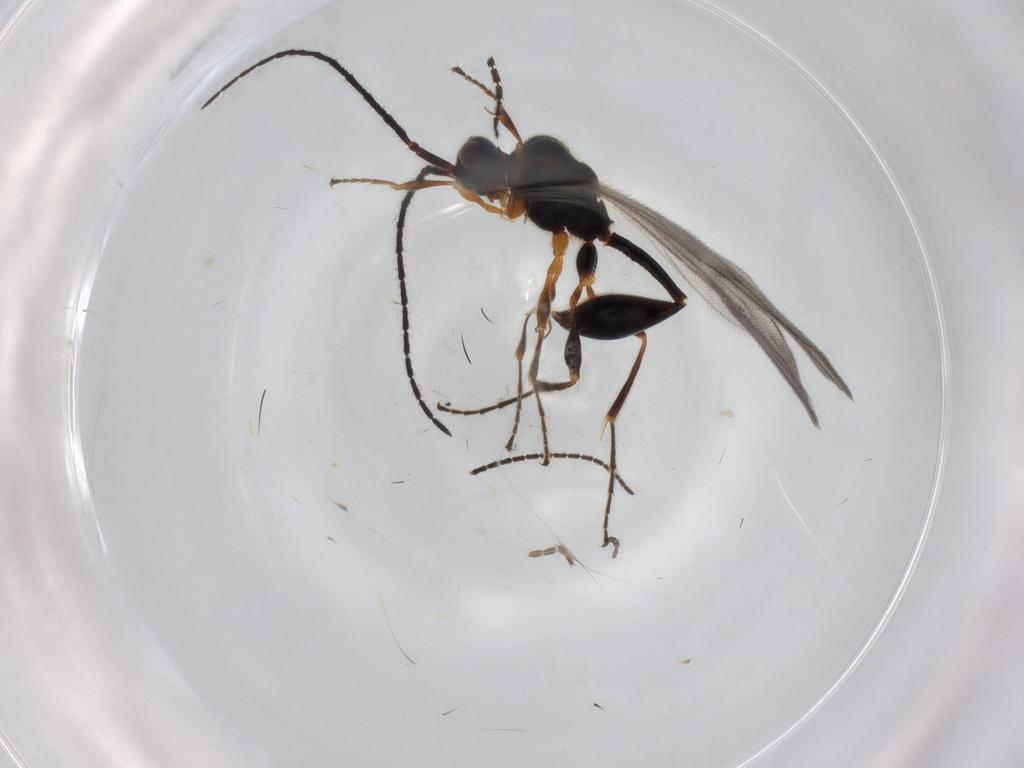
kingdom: Animalia
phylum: Arthropoda
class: Insecta
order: Hymenoptera
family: Diapriidae
